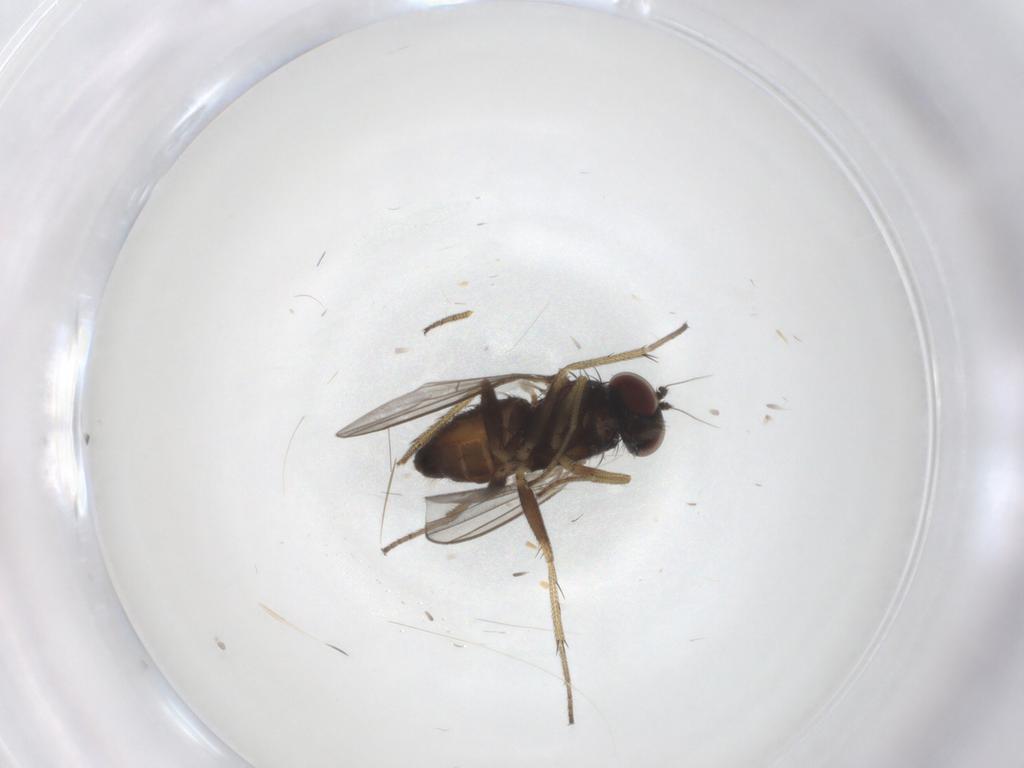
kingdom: Animalia
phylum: Arthropoda
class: Insecta
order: Diptera
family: Dolichopodidae
